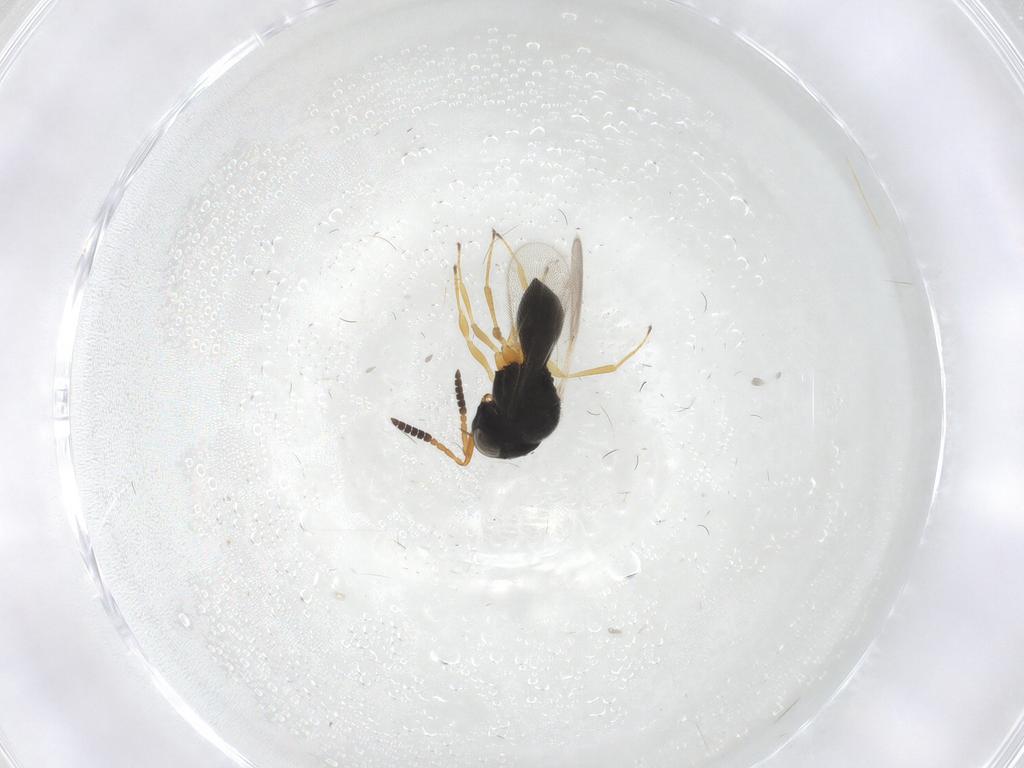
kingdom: Animalia
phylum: Arthropoda
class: Insecta
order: Hymenoptera
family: Scelionidae
